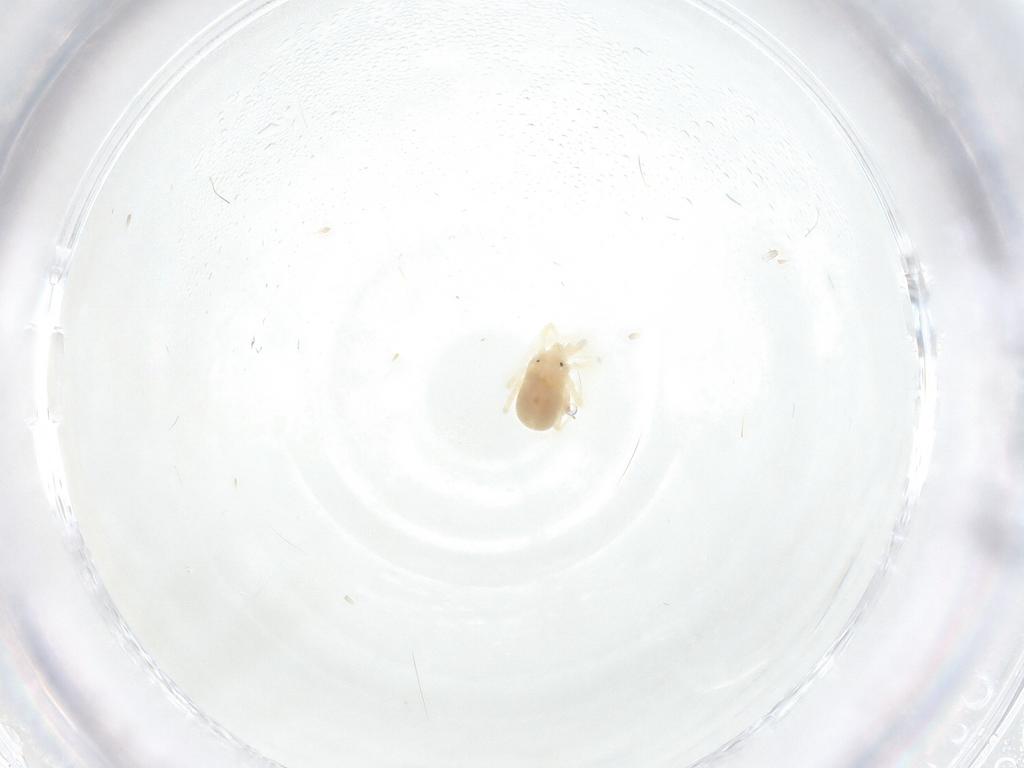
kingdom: Animalia
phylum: Arthropoda
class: Arachnida
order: Trombidiformes
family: Anystidae
